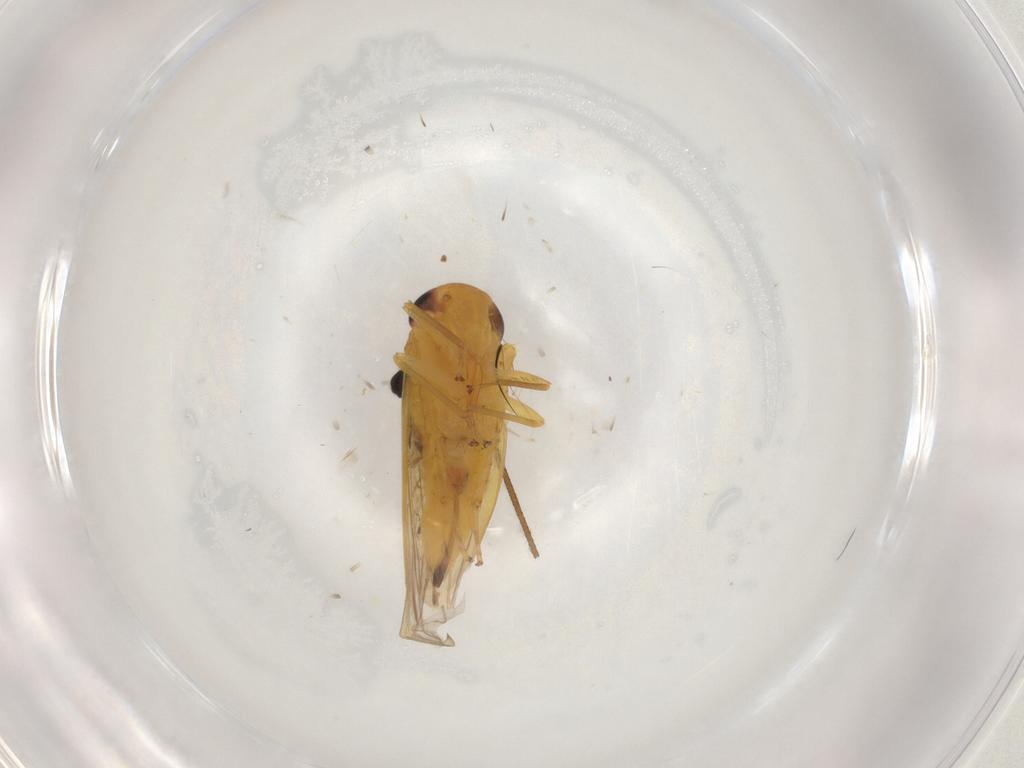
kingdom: Animalia
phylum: Arthropoda
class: Insecta
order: Hemiptera
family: Cicadellidae
